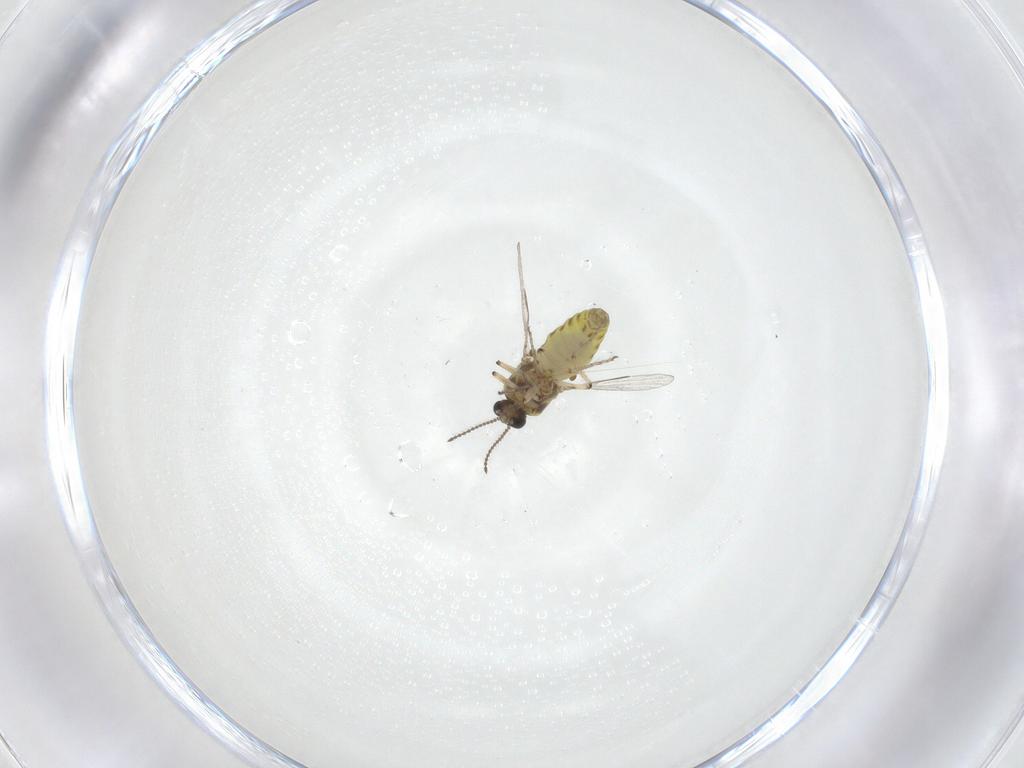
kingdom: Animalia
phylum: Arthropoda
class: Insecta
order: Diptera
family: Ceratopogonidae
